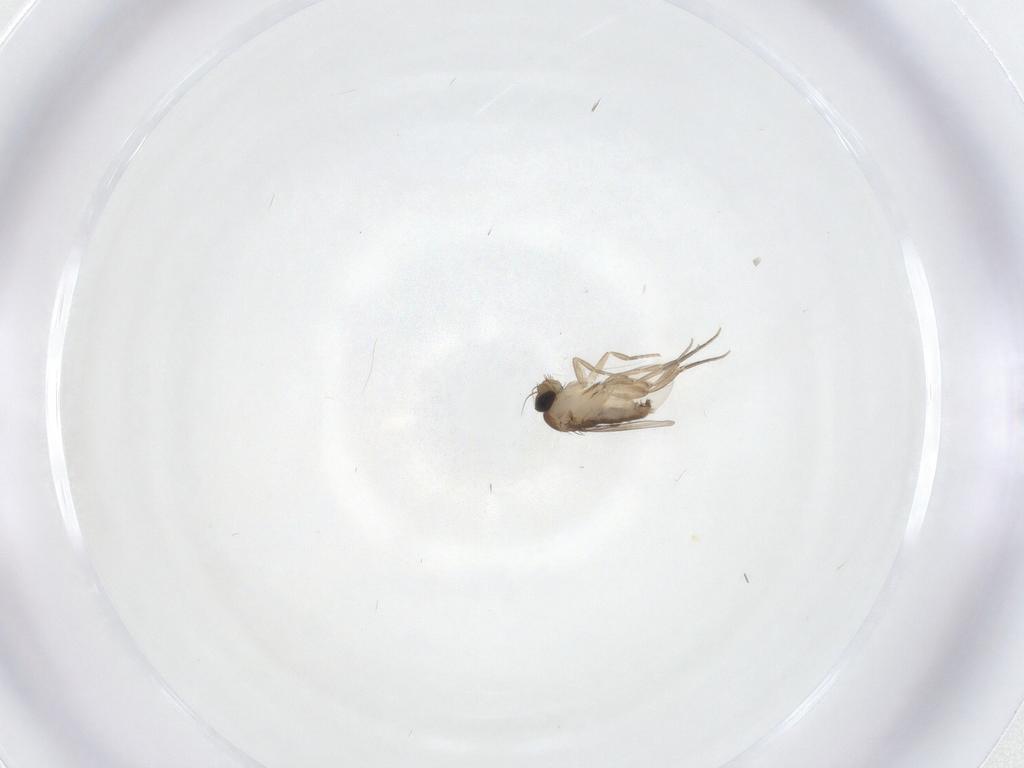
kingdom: Animalia
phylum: Arthropoda
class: Insecta
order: Diptera
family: Phoridae
